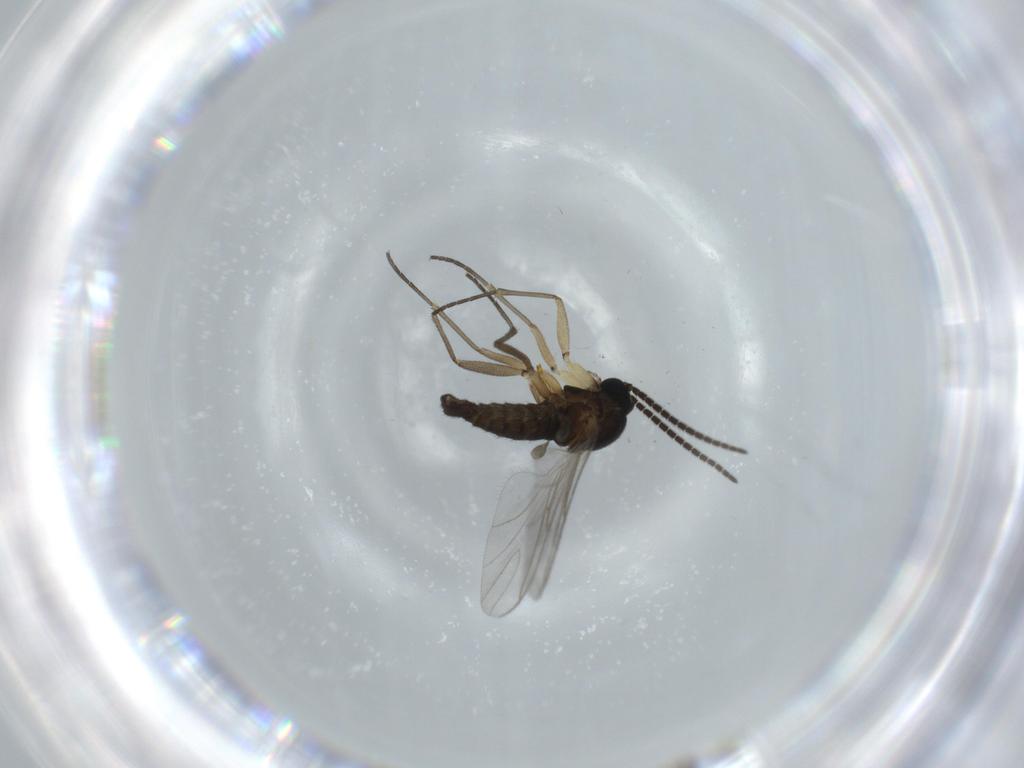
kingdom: Animalia
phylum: Arthropoda
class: Insecta
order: Diptera
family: Sciaridae
